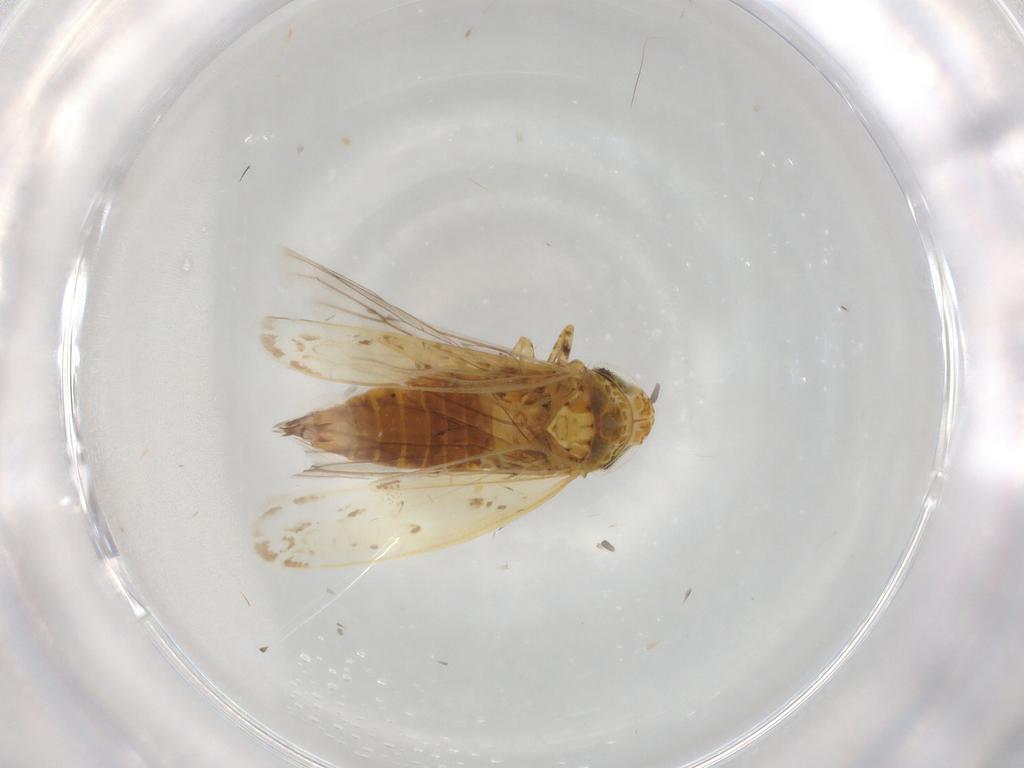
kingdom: Animalia
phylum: Arthropoda
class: Insecta
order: Hemiptera
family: Cicadellidae
